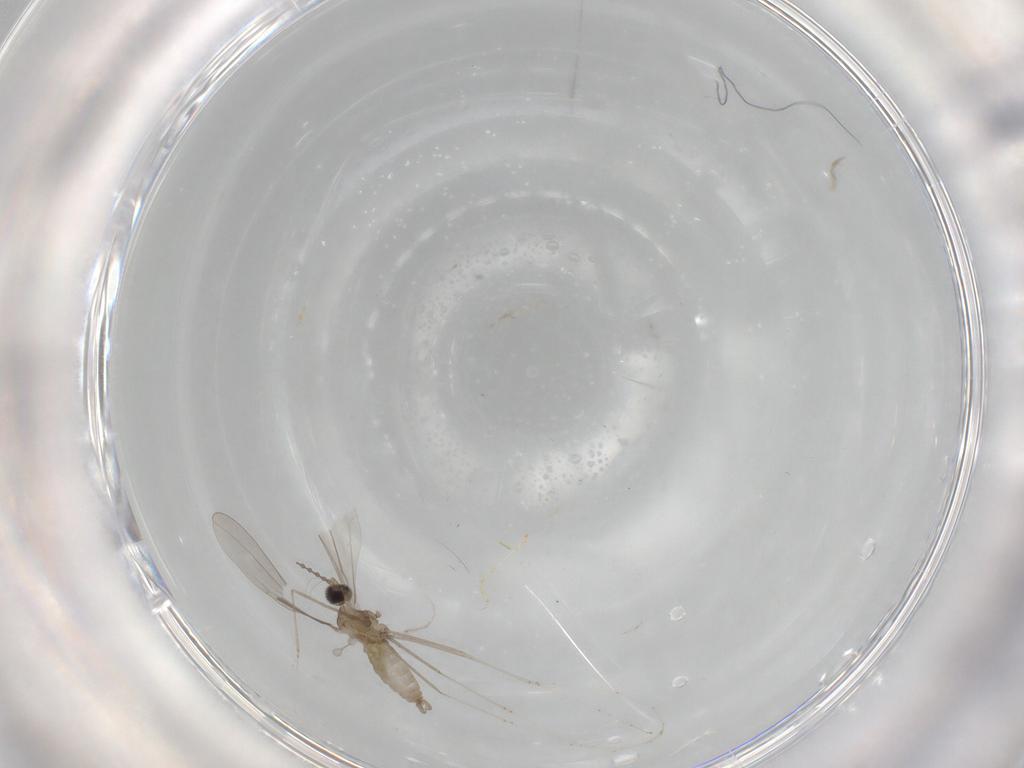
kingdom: Animalia
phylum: Arthropoda
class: Insecta
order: Diptera
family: Cecidomyiidae
